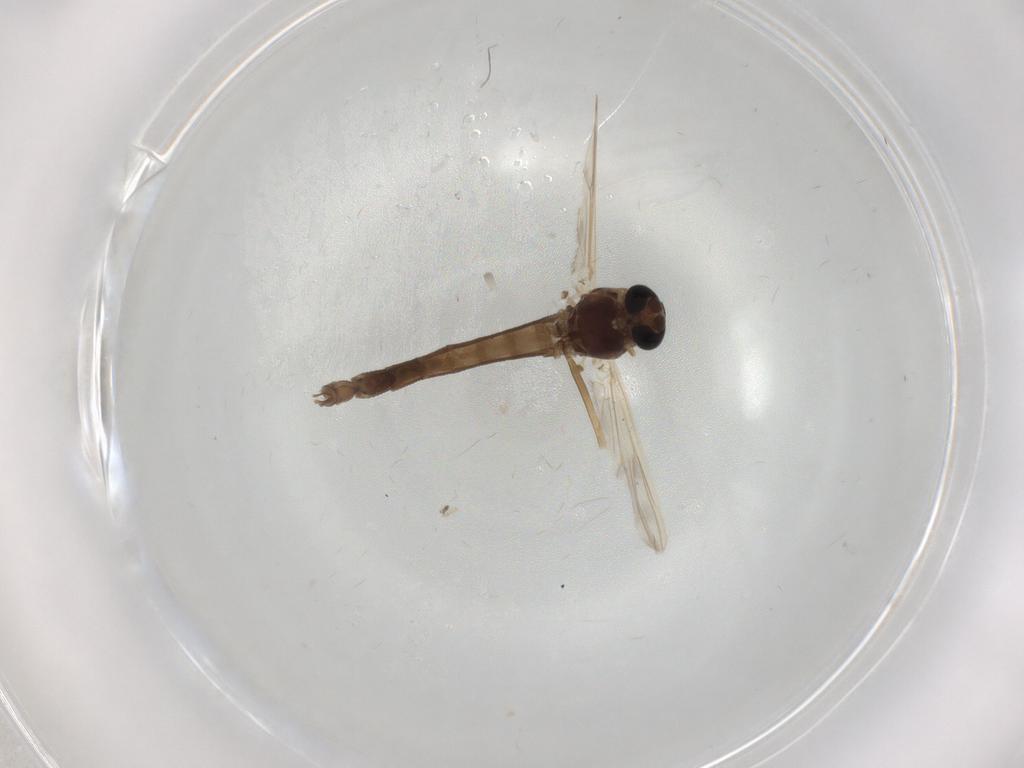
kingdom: Animalia
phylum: Arthropoda
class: Insecta
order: Diptera
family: Chironomidae
